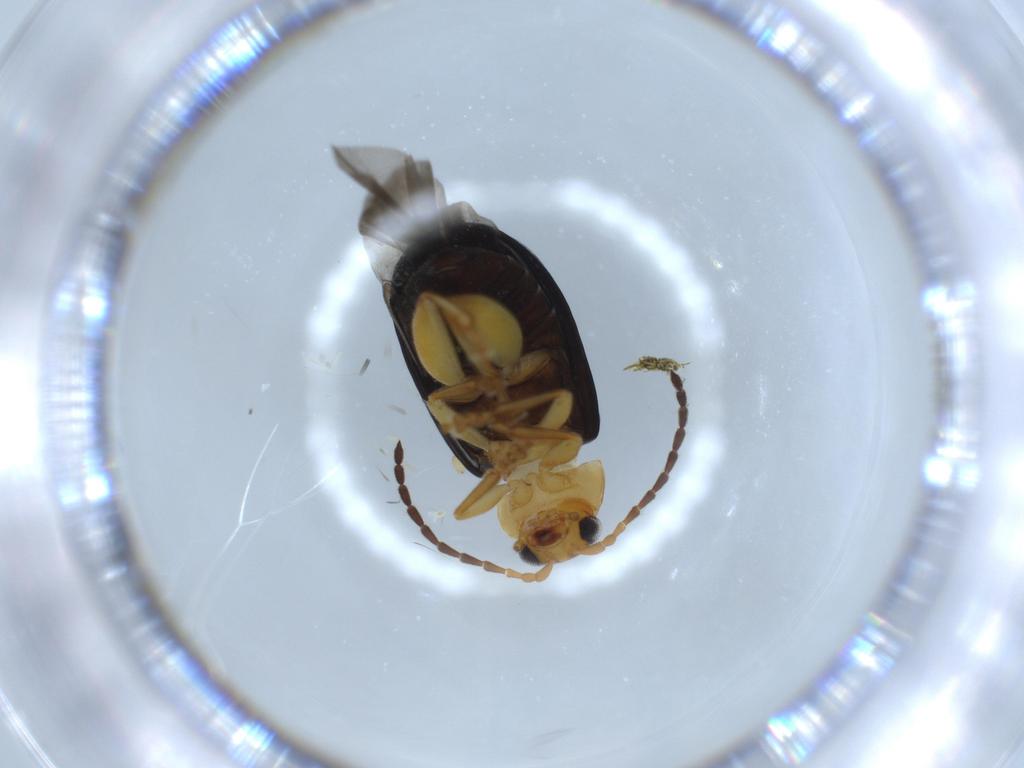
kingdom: Animalia
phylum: Arthropoda
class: Insecta
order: Coleoptera
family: Chrysomelidae
